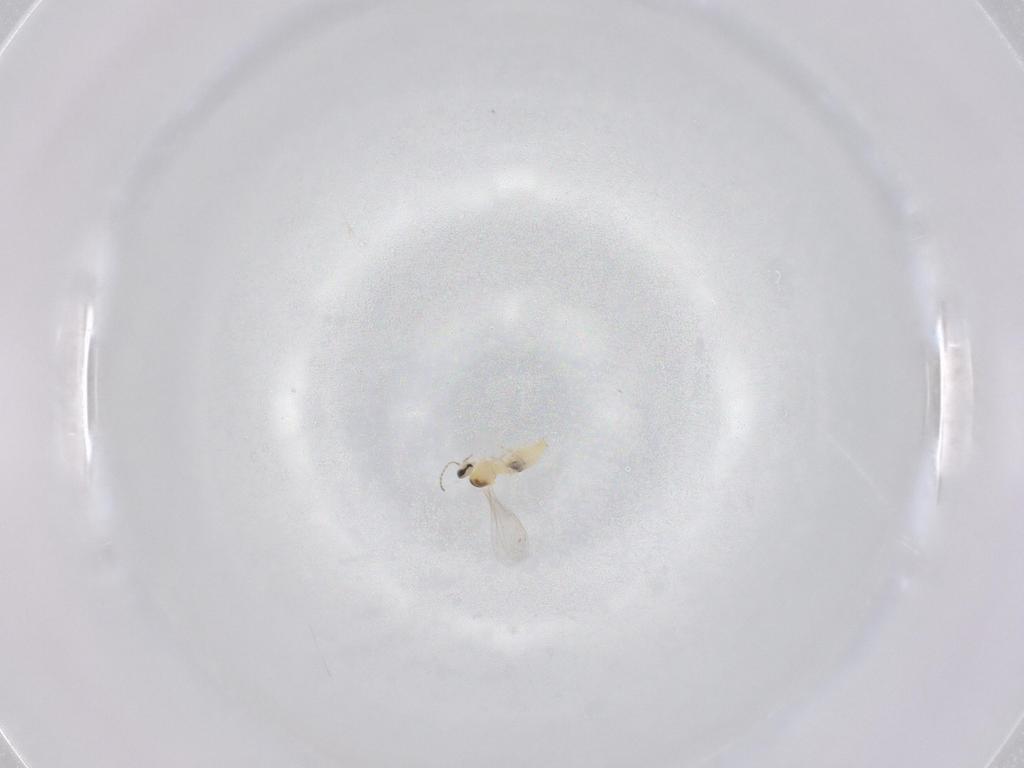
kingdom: Animalia
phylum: Arthropoda
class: Insecta
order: Diptera
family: Cecidomyiidae
